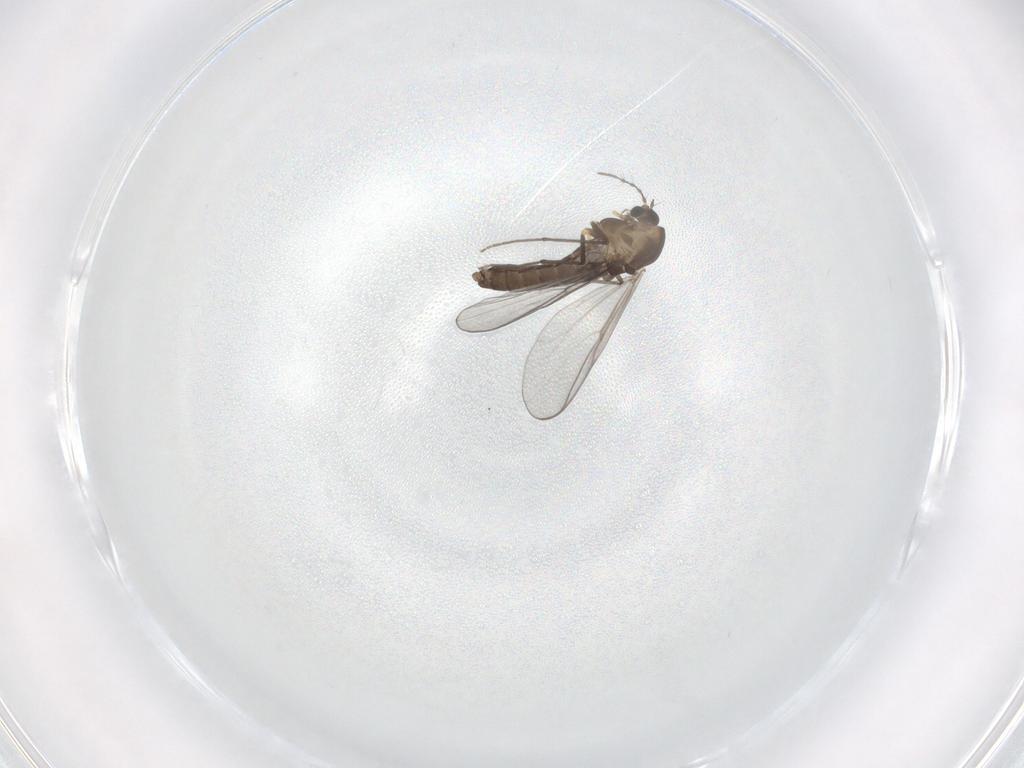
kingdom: Animalia
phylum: Arthropoda
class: Insecta
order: Diptera
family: Chironomidae
